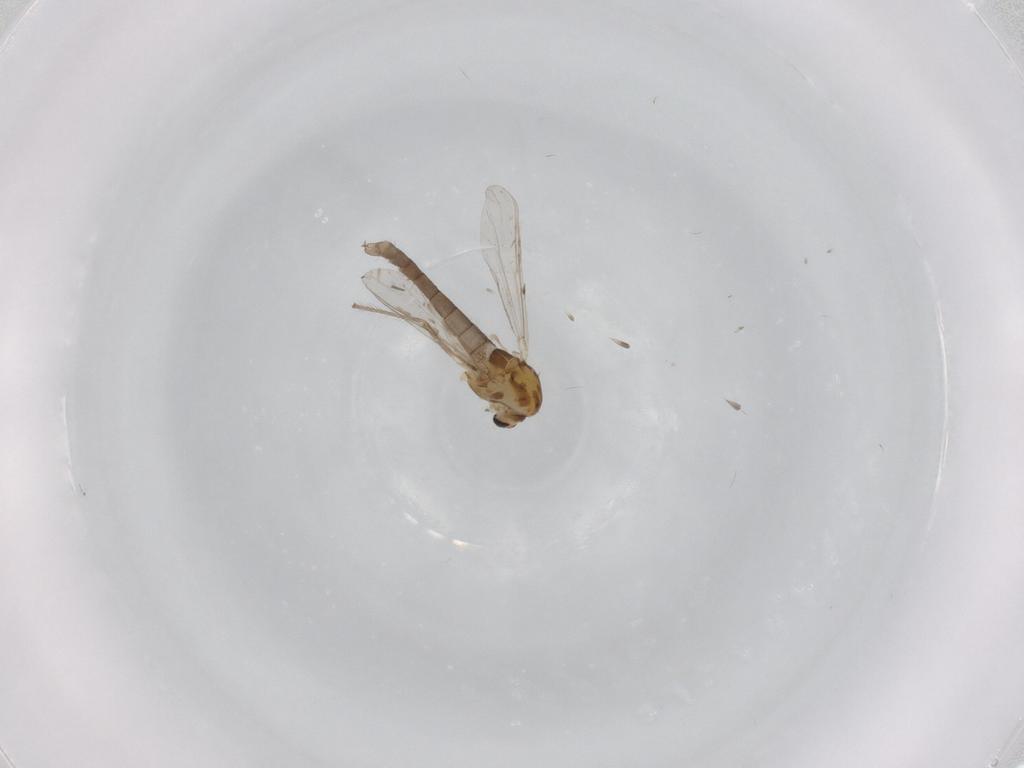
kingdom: Animalia
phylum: Arthropoda
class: Insecta
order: Diptera
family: Chironomidae
